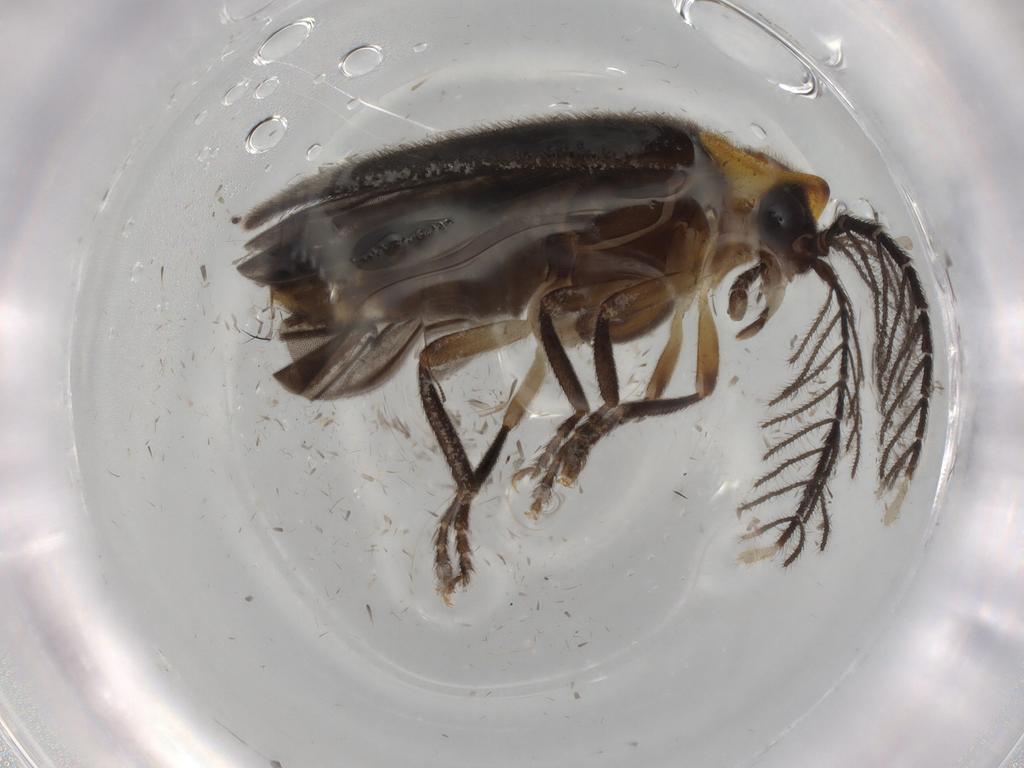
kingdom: Animalia
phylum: Arthropoda
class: Insecta
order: Coleoptera
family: Lampyridae
